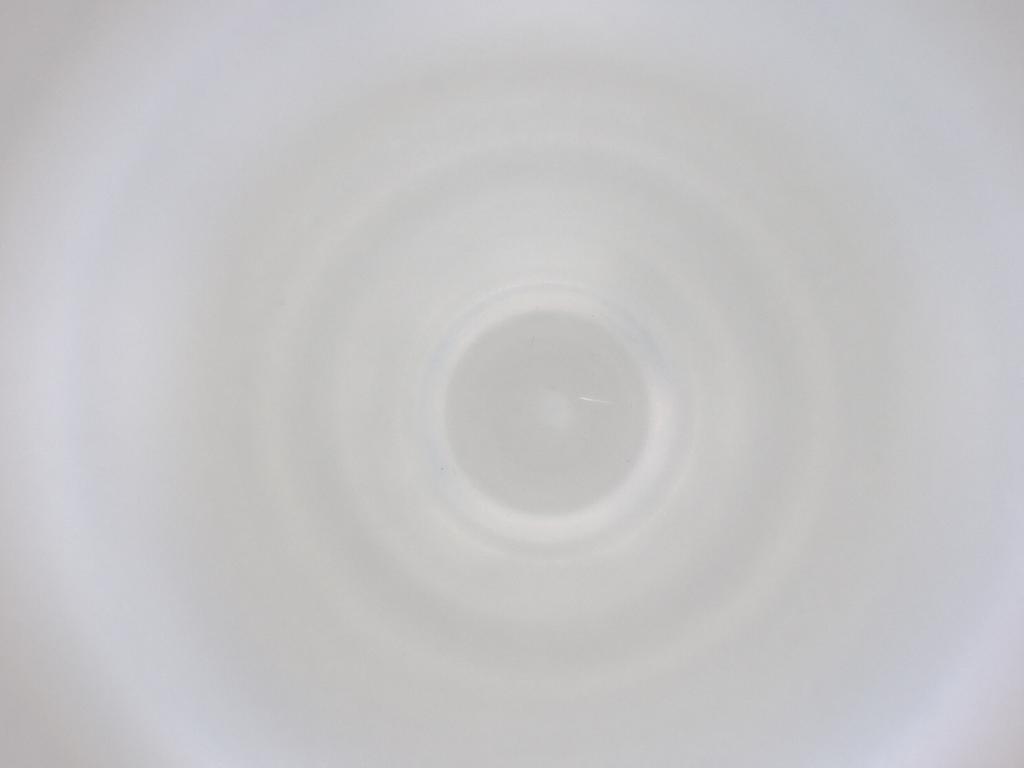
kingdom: Animalia
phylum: Arthropoda
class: Insecta
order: Diptera
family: Cecidomyiidae
